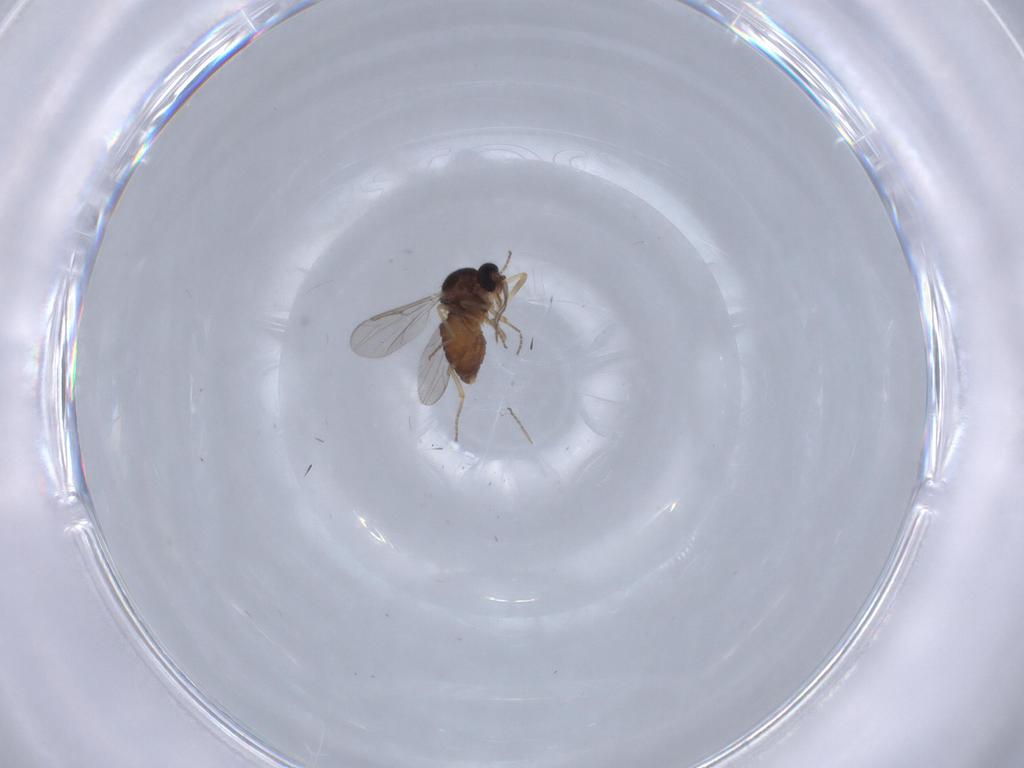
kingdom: Animalia
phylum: Arthropoda
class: Insecta
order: Diptera
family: Ceratopogonidae
